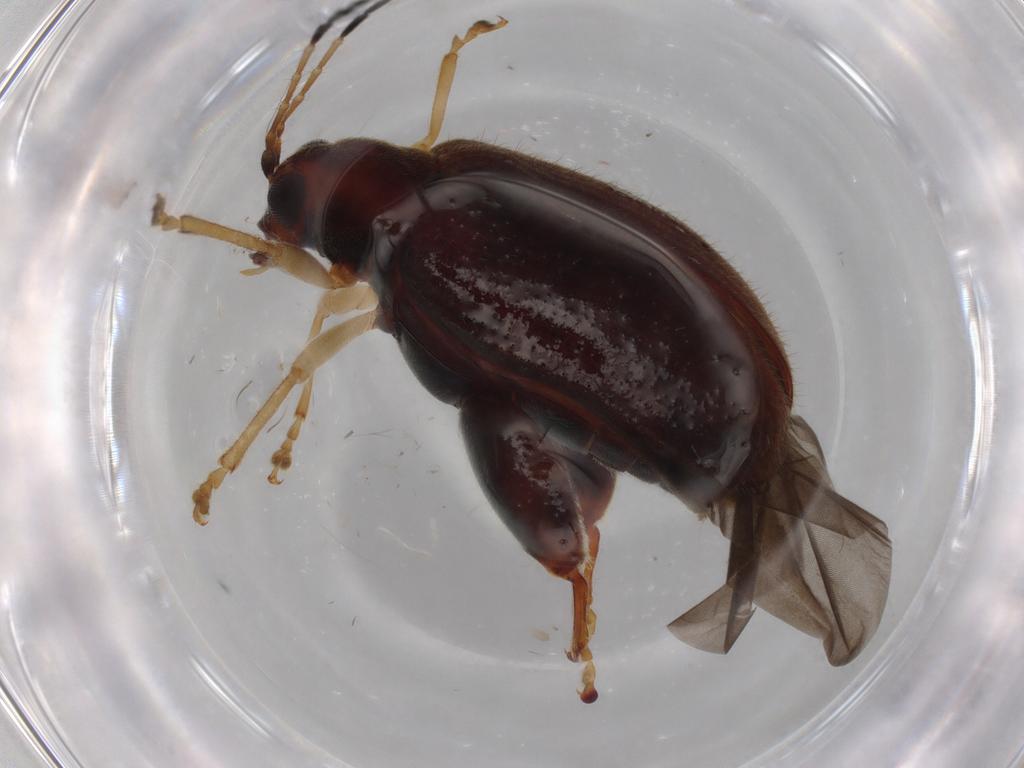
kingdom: Animalia
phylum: Arthropoda
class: Insecta
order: Coleoptera
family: Chrysomelidae
